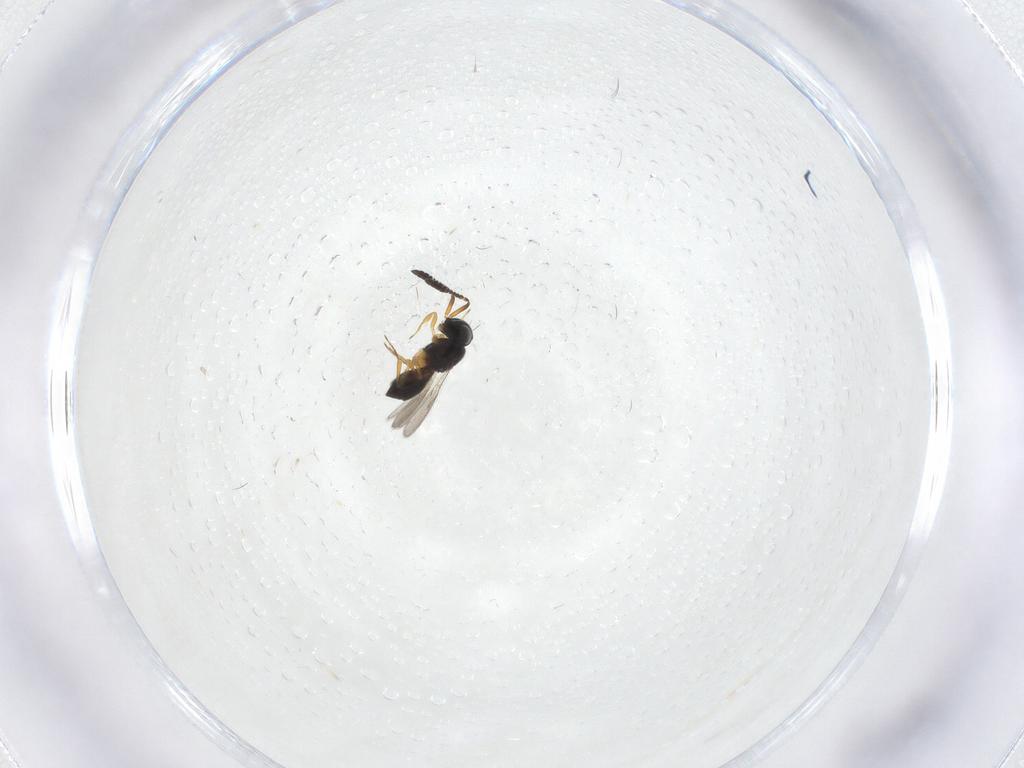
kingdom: Animalia
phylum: Arthropoda
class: Insecta
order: Hymenoptera
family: Scelionidae
